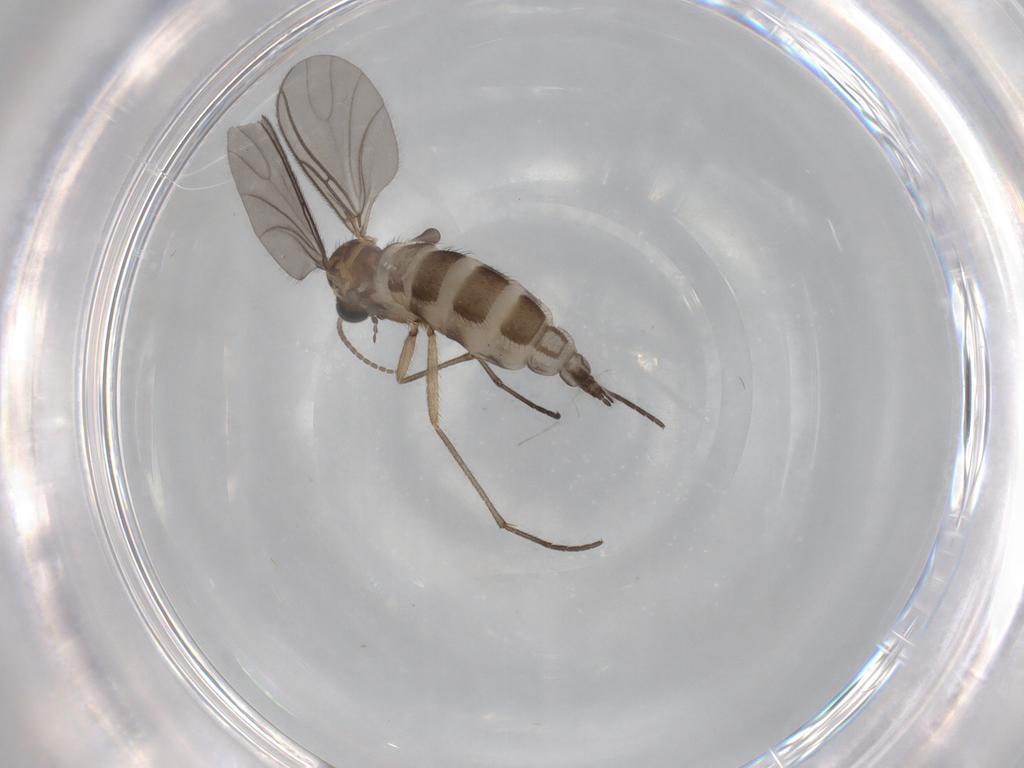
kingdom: Animalia
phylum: Arthropoda
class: Insecta
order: Diptera
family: Sciaridae
